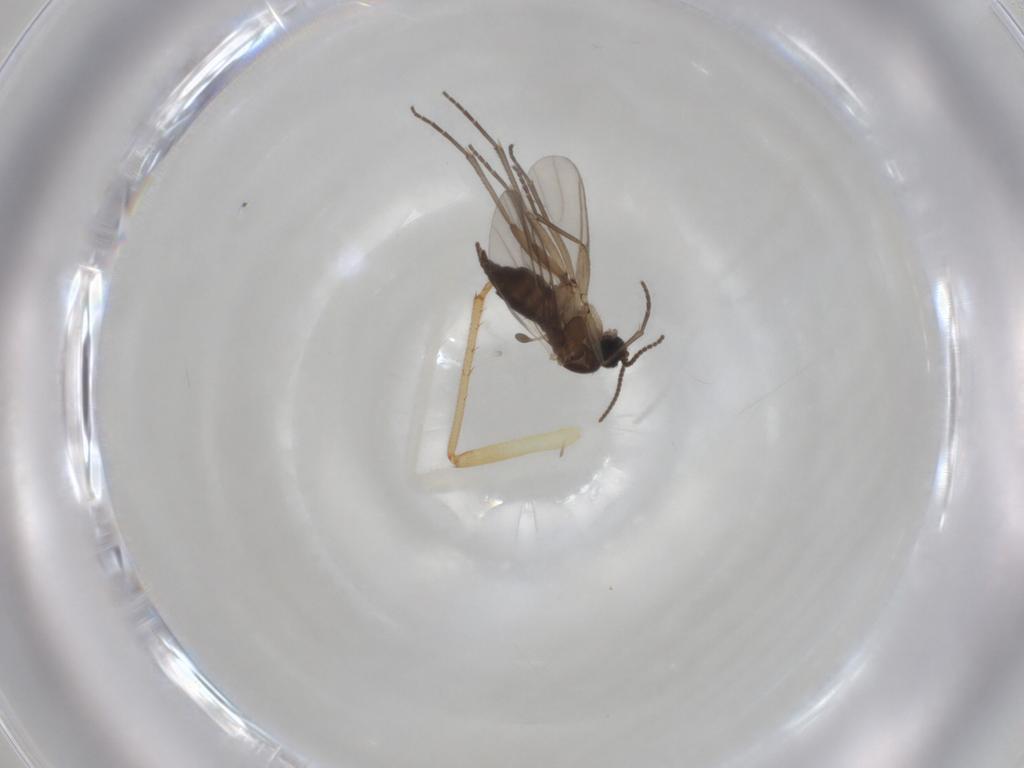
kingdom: Animalia
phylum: Arthropoda
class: Insecta
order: Diptera
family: Sciaridae
